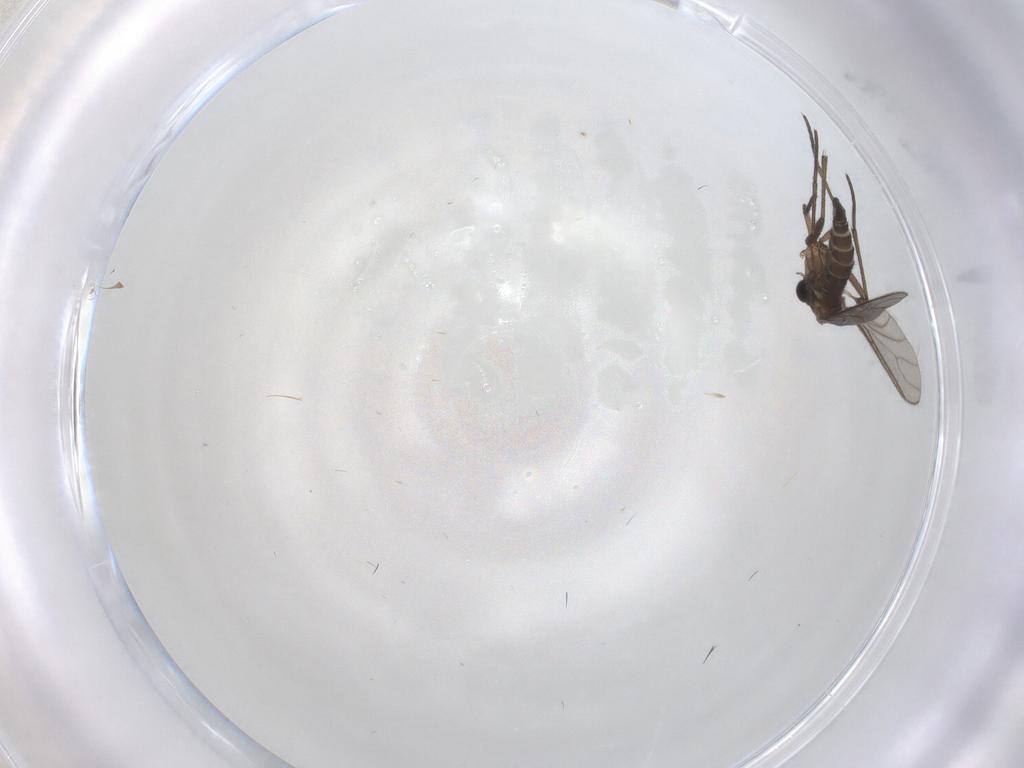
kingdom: Animalia
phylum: Arthropoda
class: Insecta
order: Diptera
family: Sciaridae
